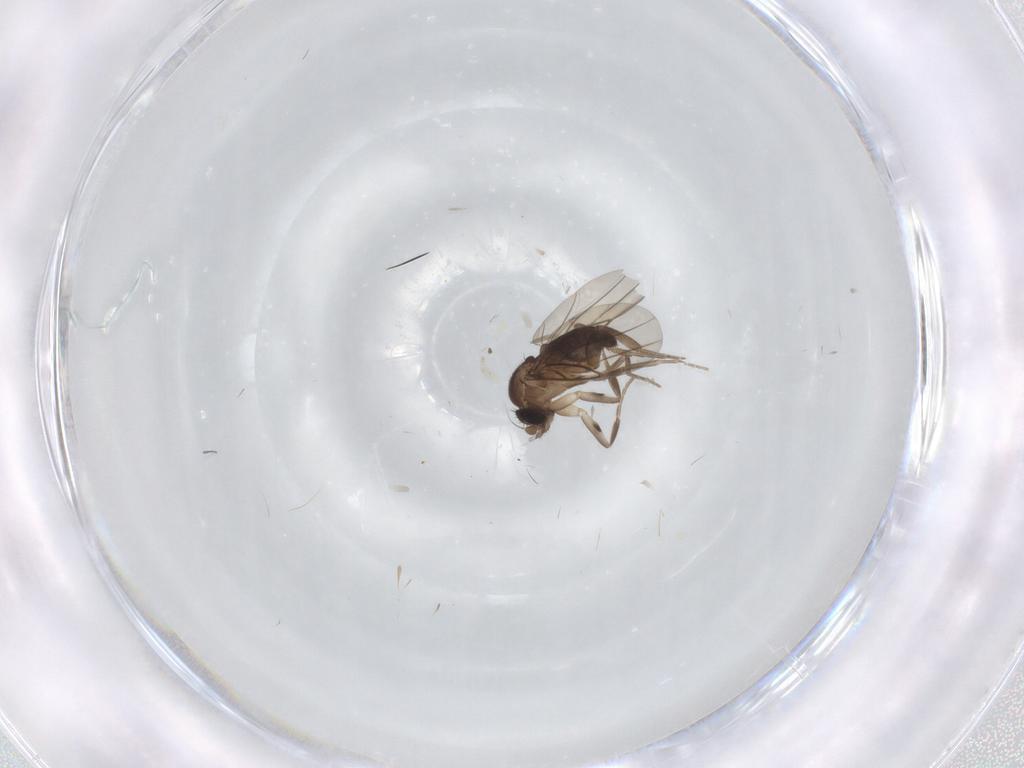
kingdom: Animalia
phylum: Arthropoda
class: Insecta
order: Diptera
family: Phoridae
